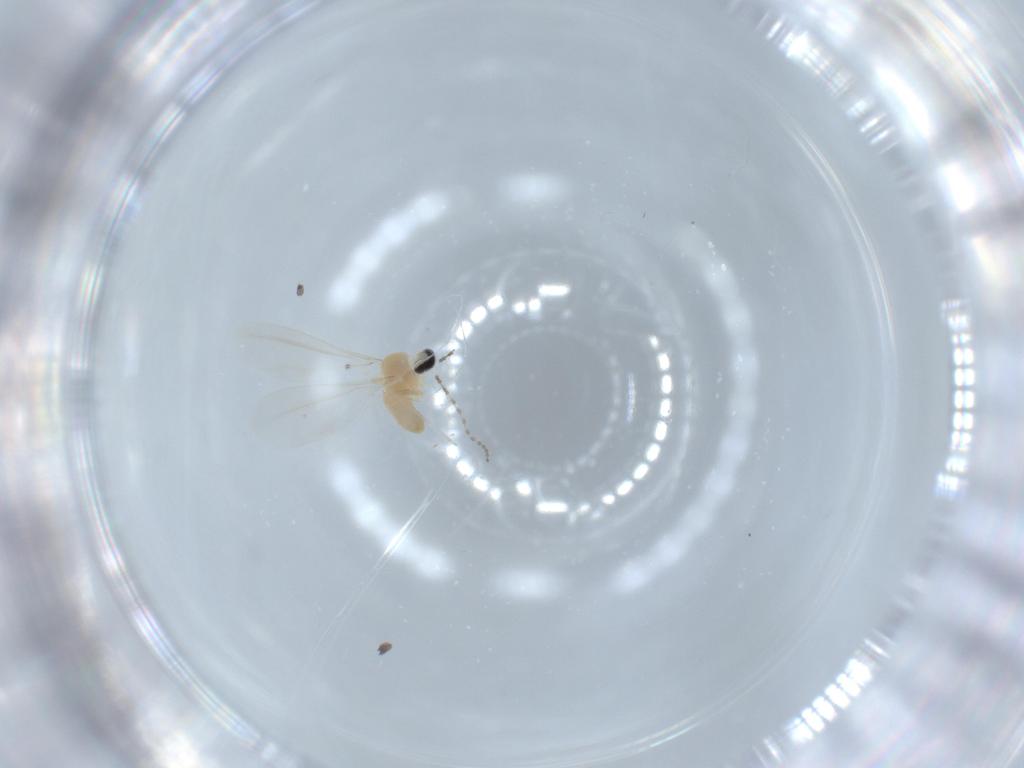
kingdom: Animalia
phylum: Arthropoda
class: Insecta
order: Diptera
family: Cecidomyiidae
